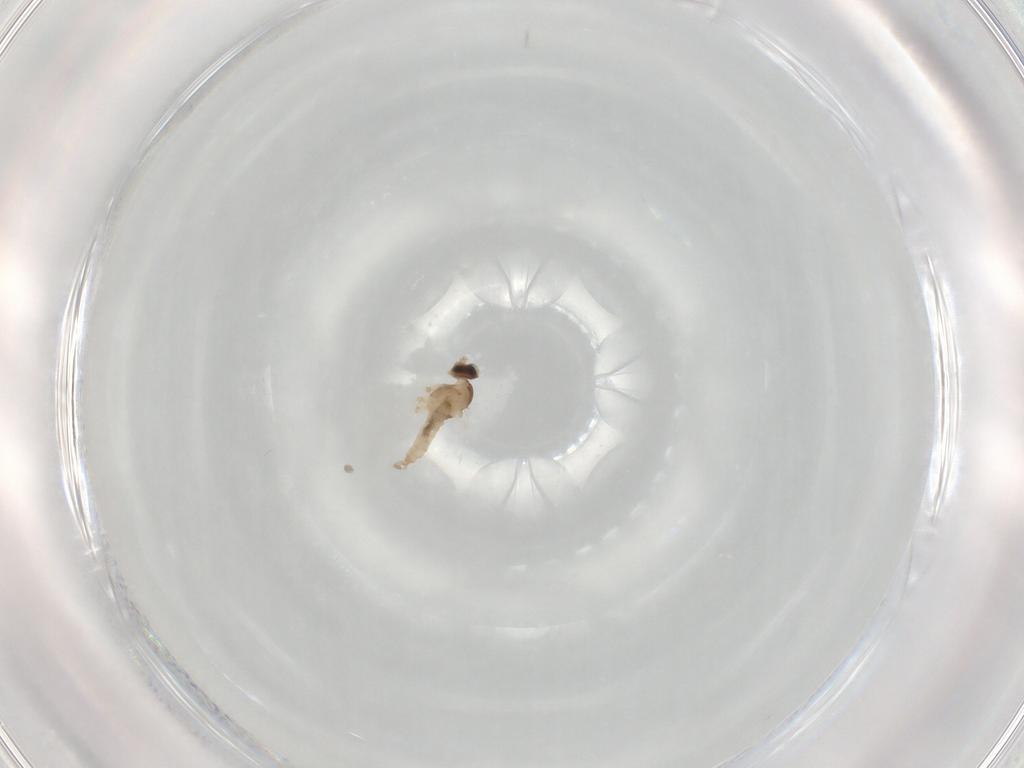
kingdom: Animalia
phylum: Arthropoda
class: Insecta
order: Diptera
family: Cecidomyiidae
